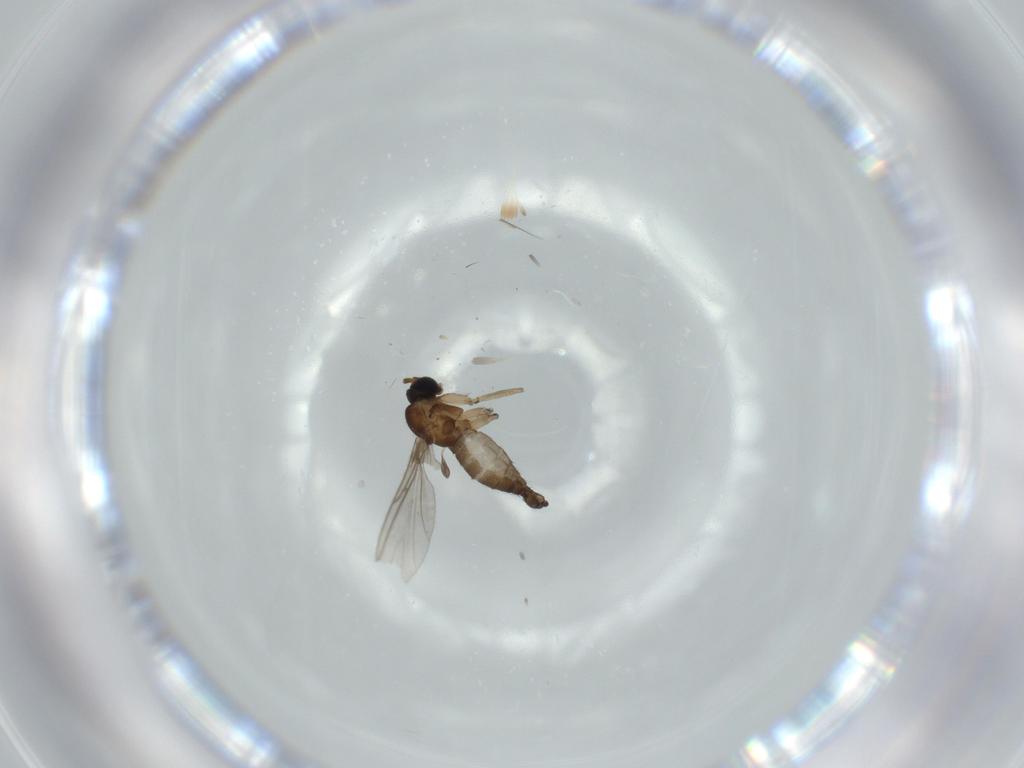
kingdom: Animalia
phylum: Arthropoda
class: Insecta
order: Diptera
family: Sciaridae
